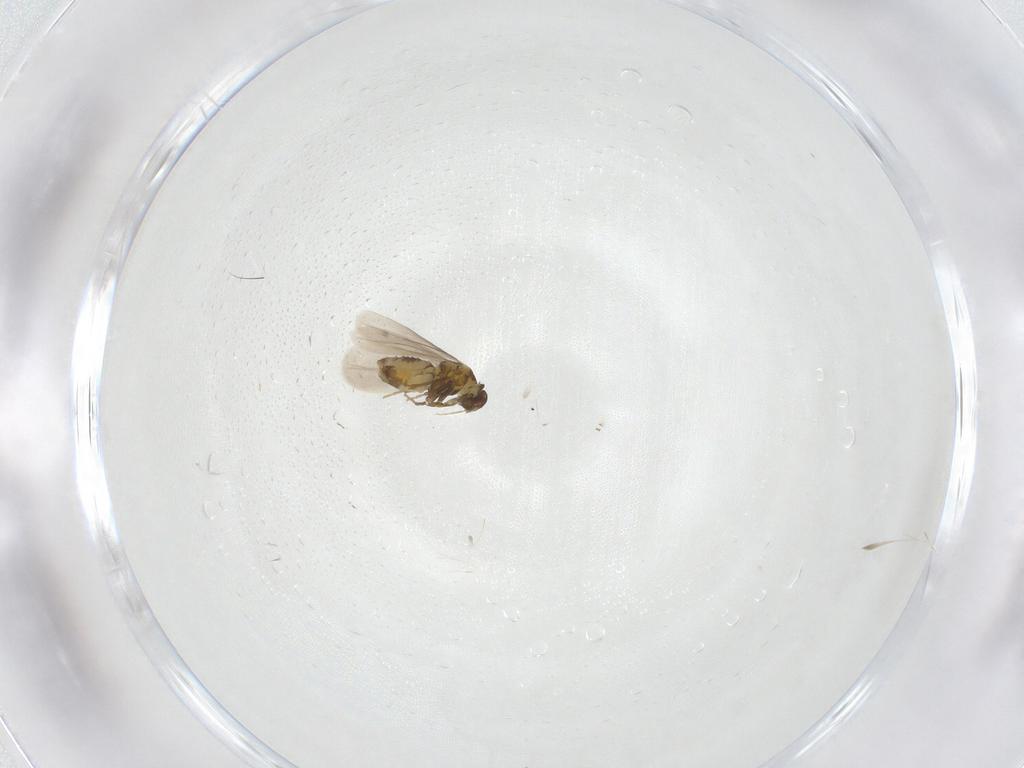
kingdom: Animalia
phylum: Arthropoda
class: Insecta
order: Hemiptera
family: Aleyrodidae
